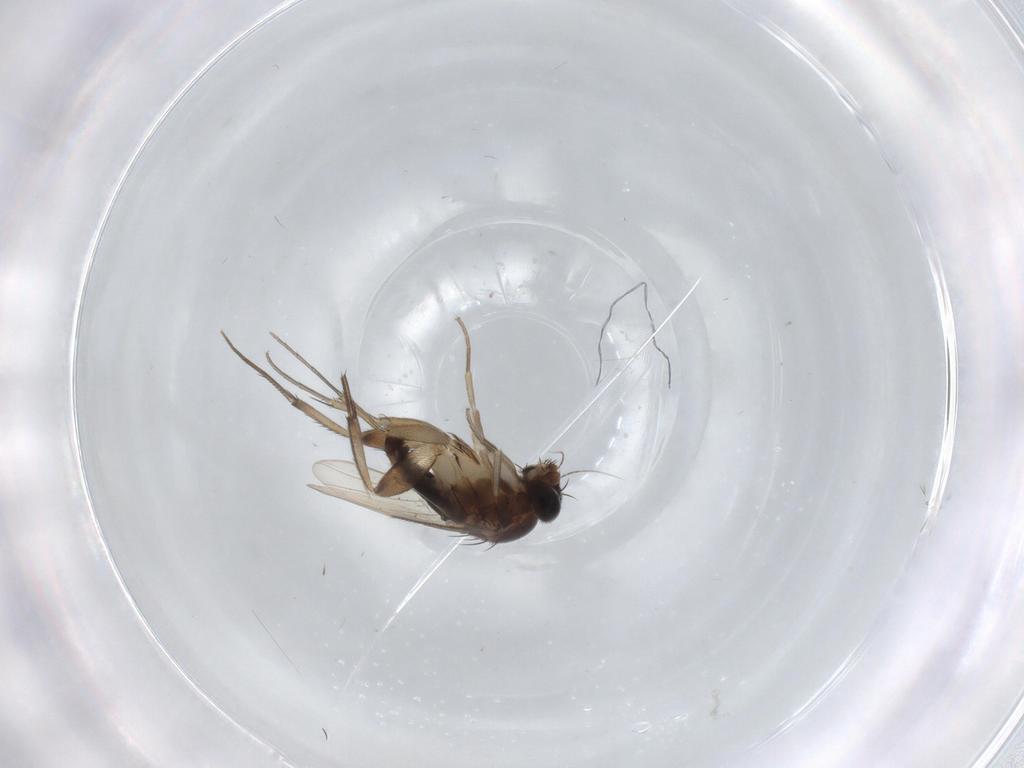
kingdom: Animalia
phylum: Arthropoda
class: Insecta
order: Diptera
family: Phoridae
